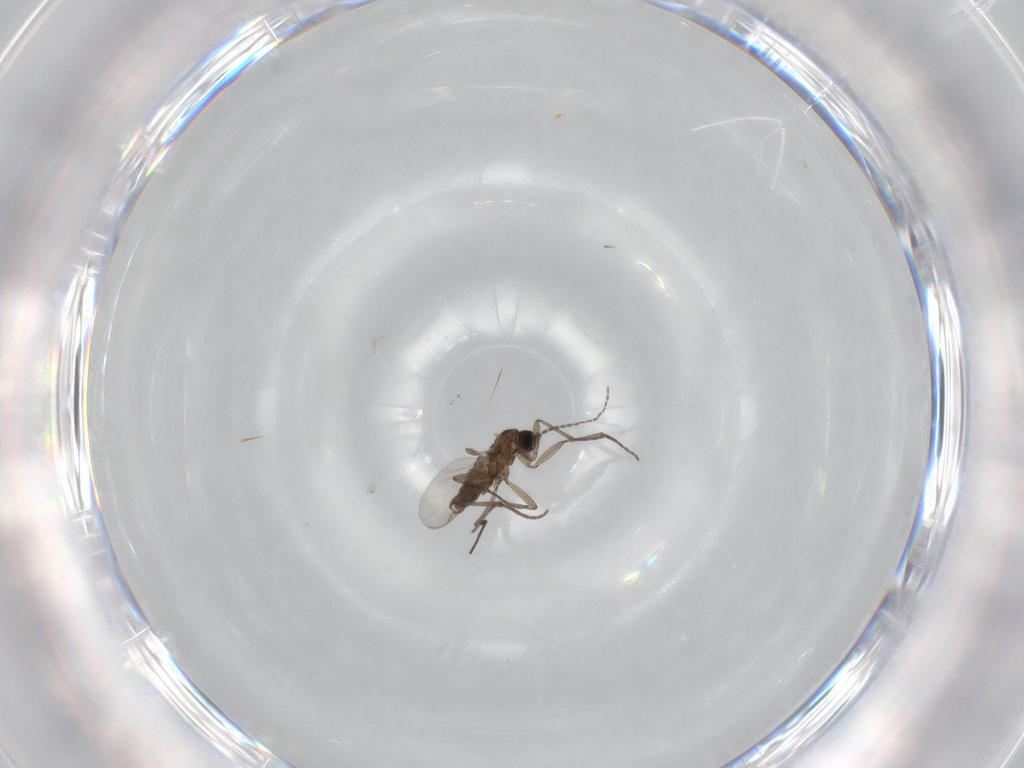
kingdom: Animalia
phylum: Arthropoda
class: Insecta
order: Diptera
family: Sciaridae
